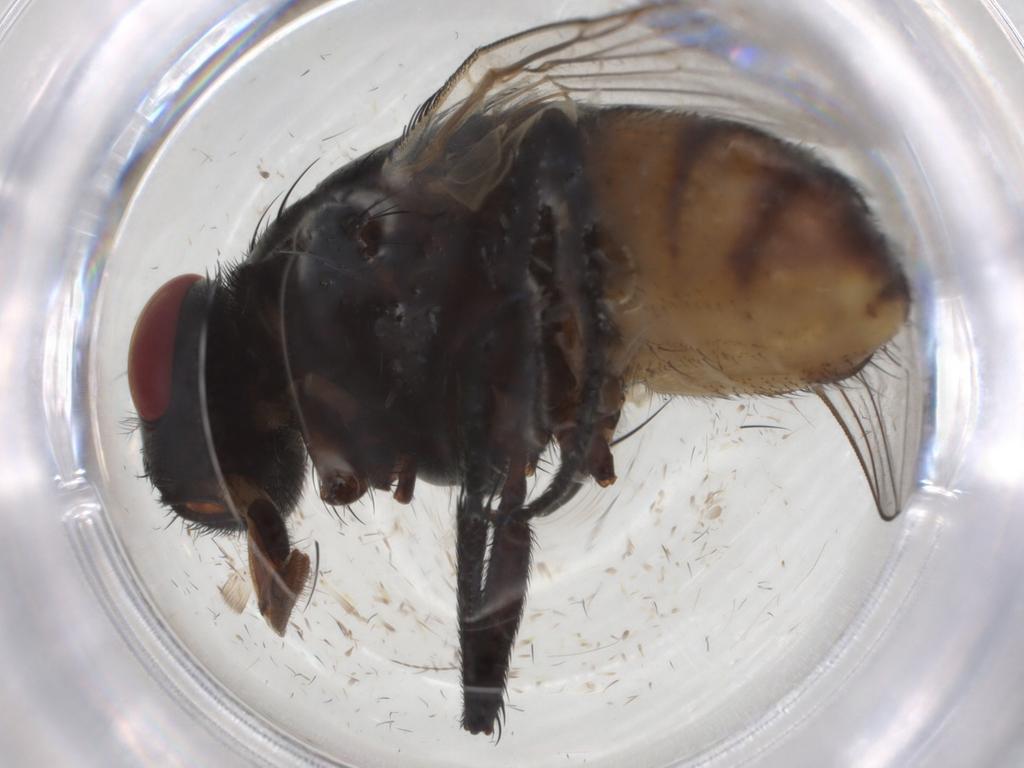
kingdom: Animalia
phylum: Arthropoda
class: Insecta
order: Diptera
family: Muscidae
